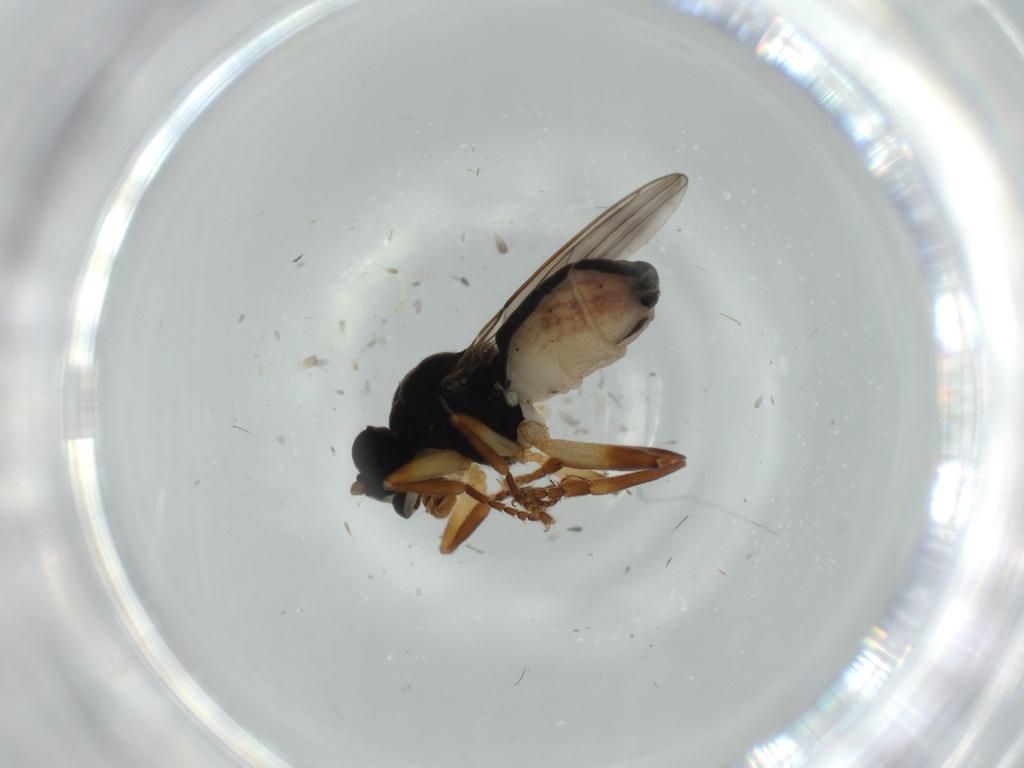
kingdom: Animalia
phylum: Arthropoda
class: Insecta
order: Diptera
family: Sphaeroceridae
